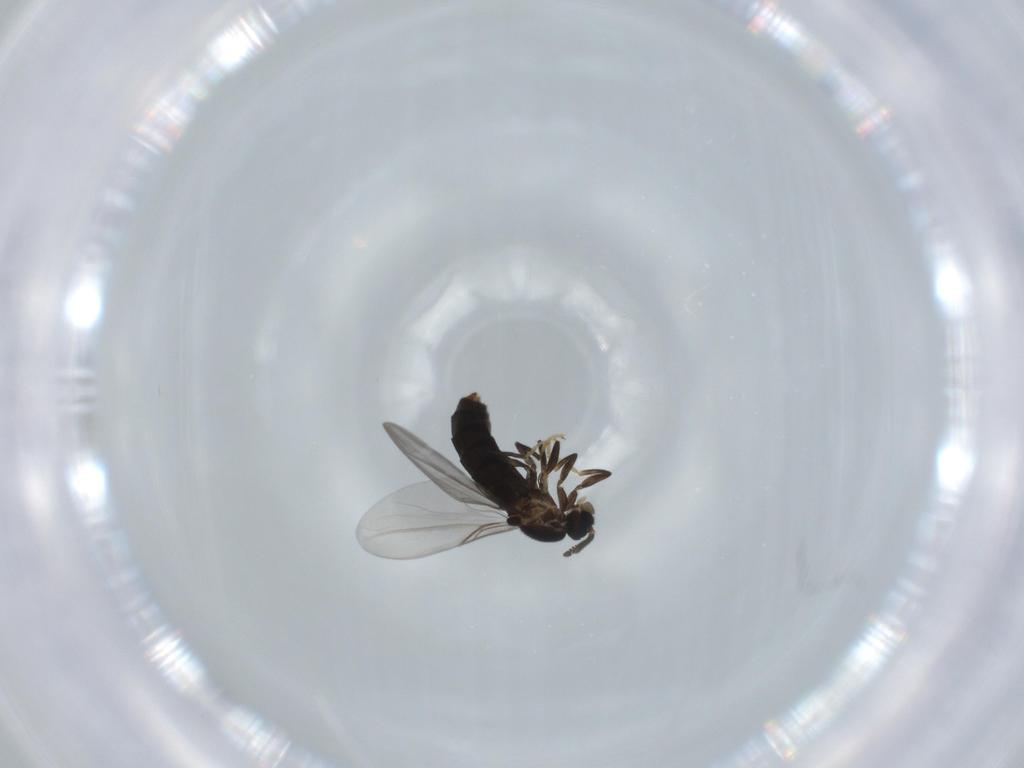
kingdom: Animalia
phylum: Arthropoda
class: Insecta
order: Diptera
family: Scatopsidae
